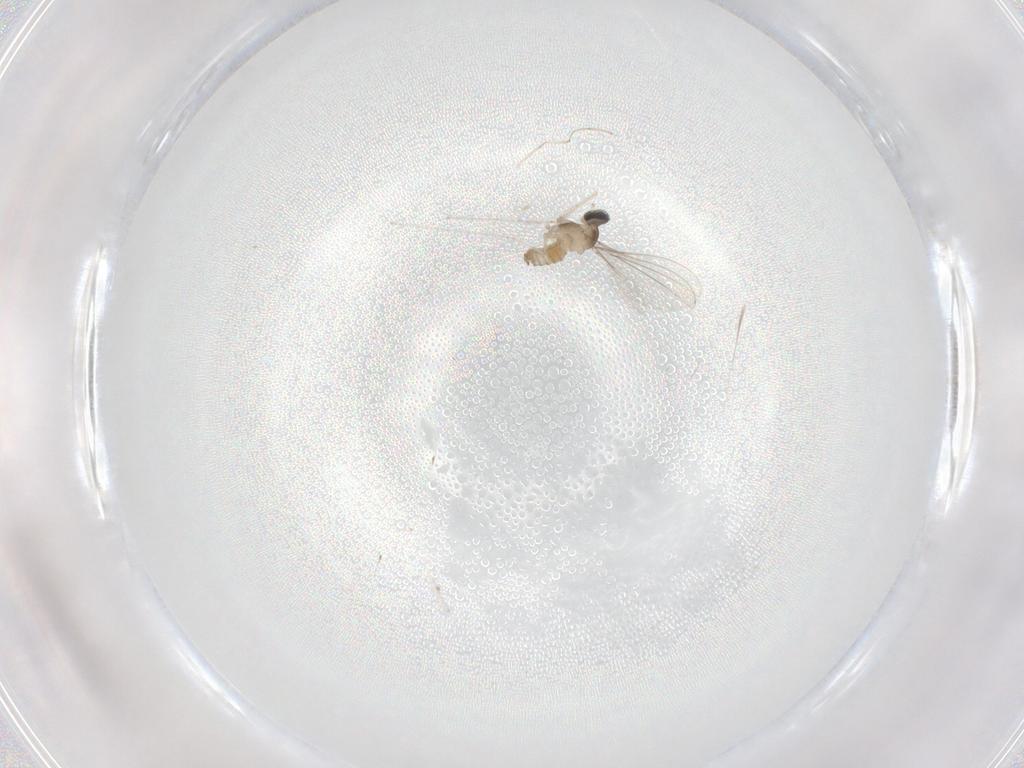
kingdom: Animalia
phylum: Arthropoda
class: Insecta
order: Diptera
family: Cecidomyiidae
